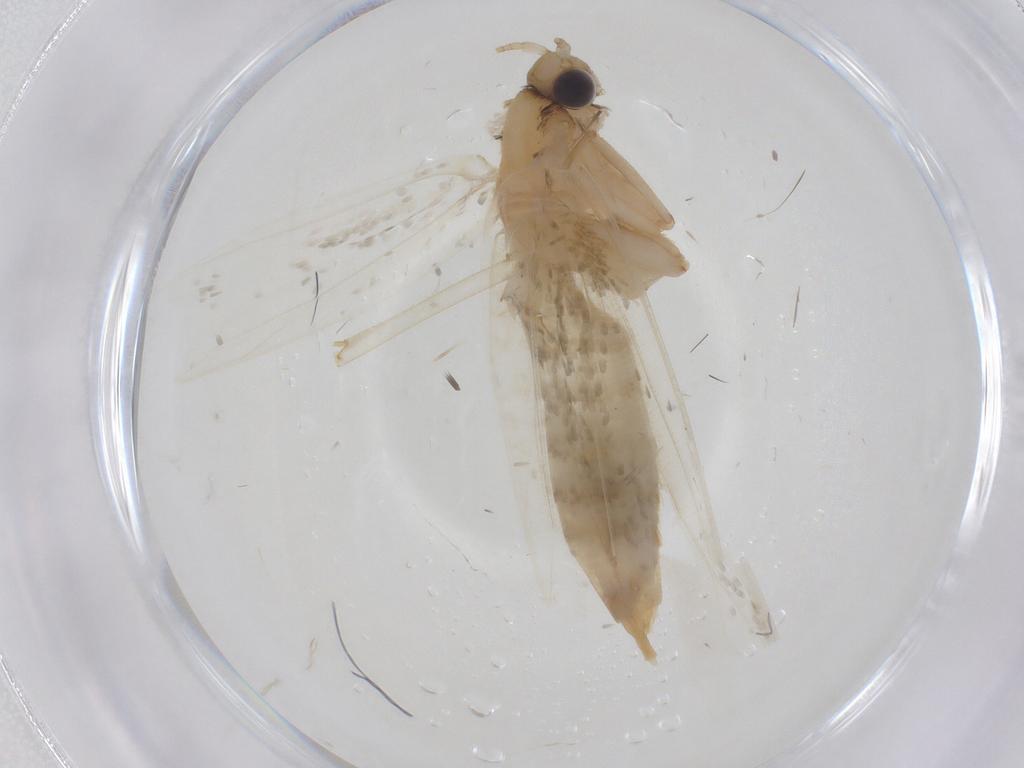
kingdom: Animalia
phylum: Arthropoda
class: Insecta
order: Lepidoptera
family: Tineidae
